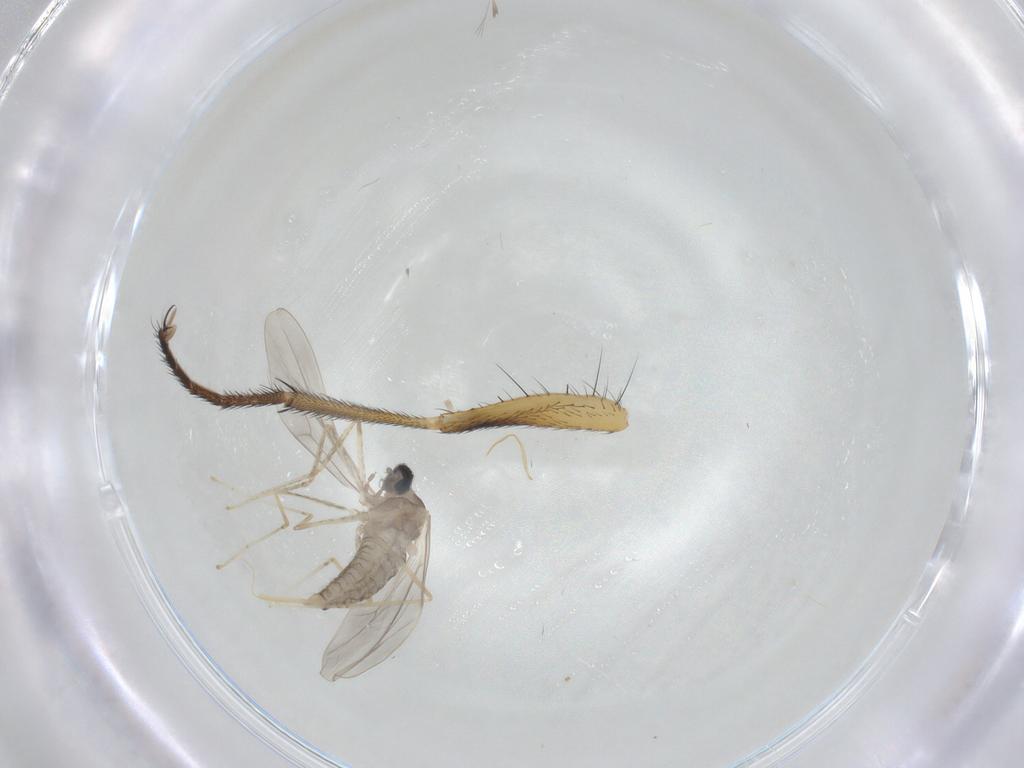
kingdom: Animalia
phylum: Arthropoda
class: Insecta
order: Diptera
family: Cecidomyiidae
